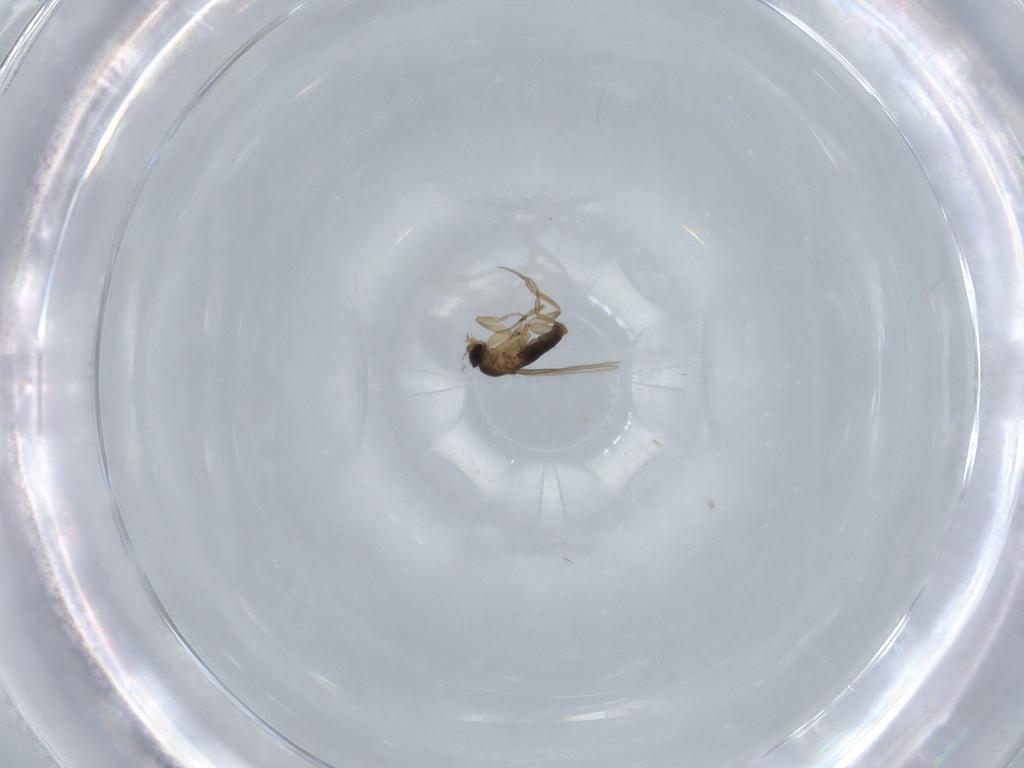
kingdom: Animalia
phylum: Arthropoda
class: Insecta
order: Diptera
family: Phoridae
